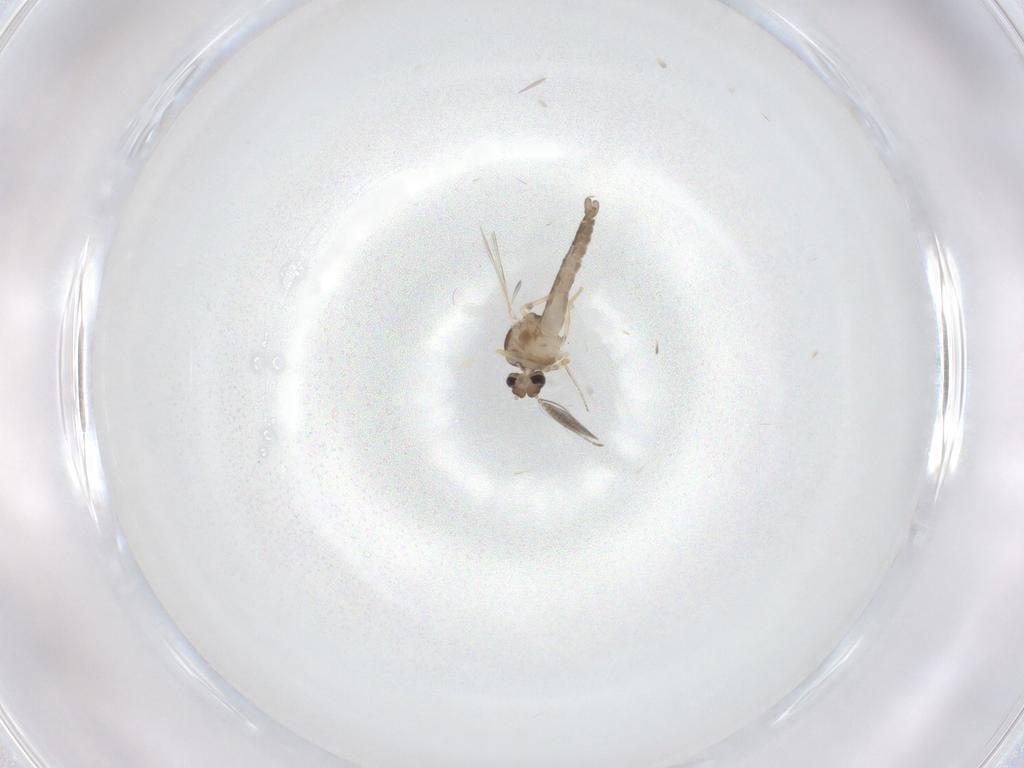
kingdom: Animalia
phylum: Arthropoda
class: Insecta
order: Diptera
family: Ceratopogonidae
